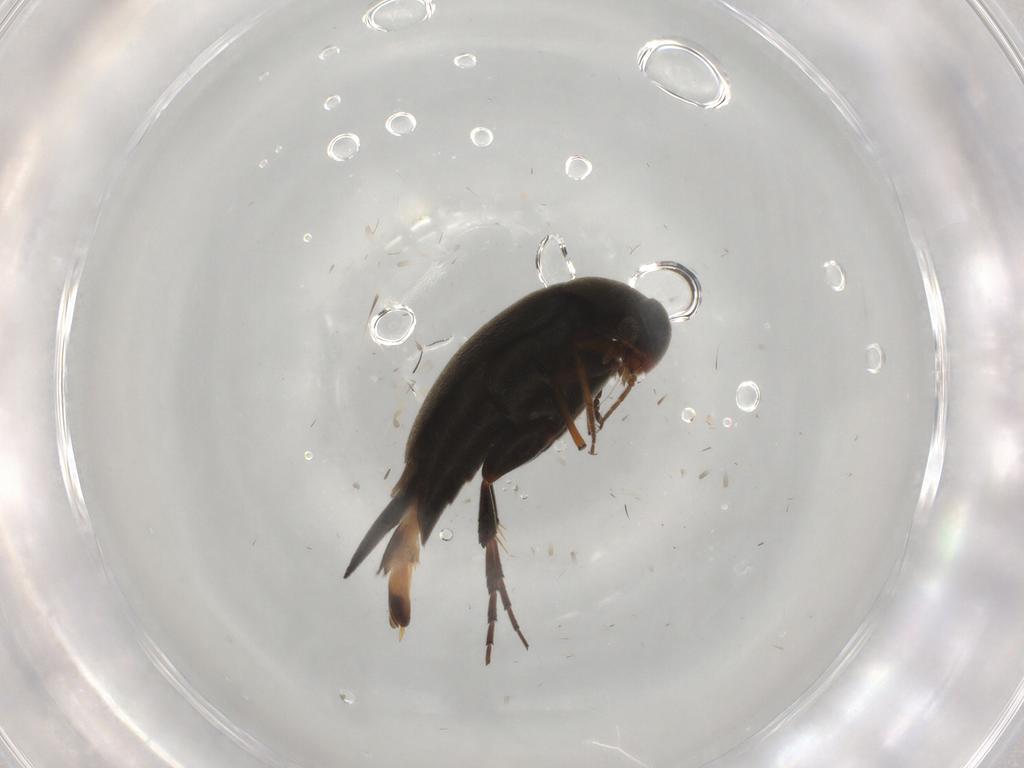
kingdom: Animalia
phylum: Arthropoda
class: Insecta
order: Coleoptera
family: Mordellidae
